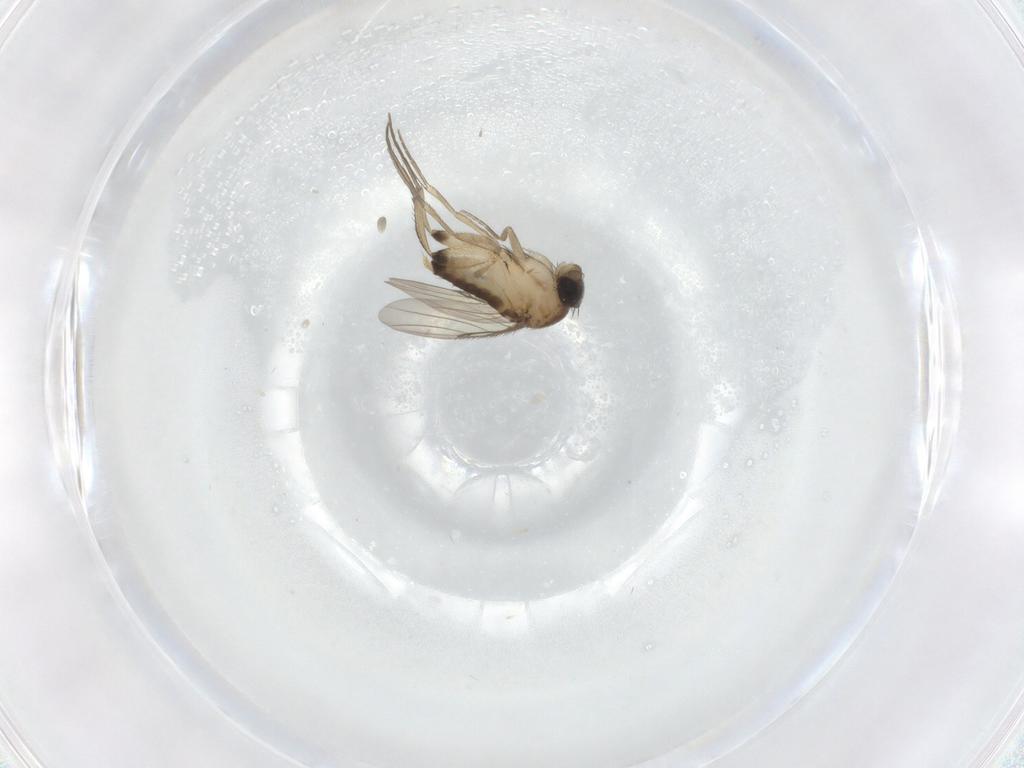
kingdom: Animalia
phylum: Arthropoda
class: Insecta
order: Diptera
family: Phoridae
